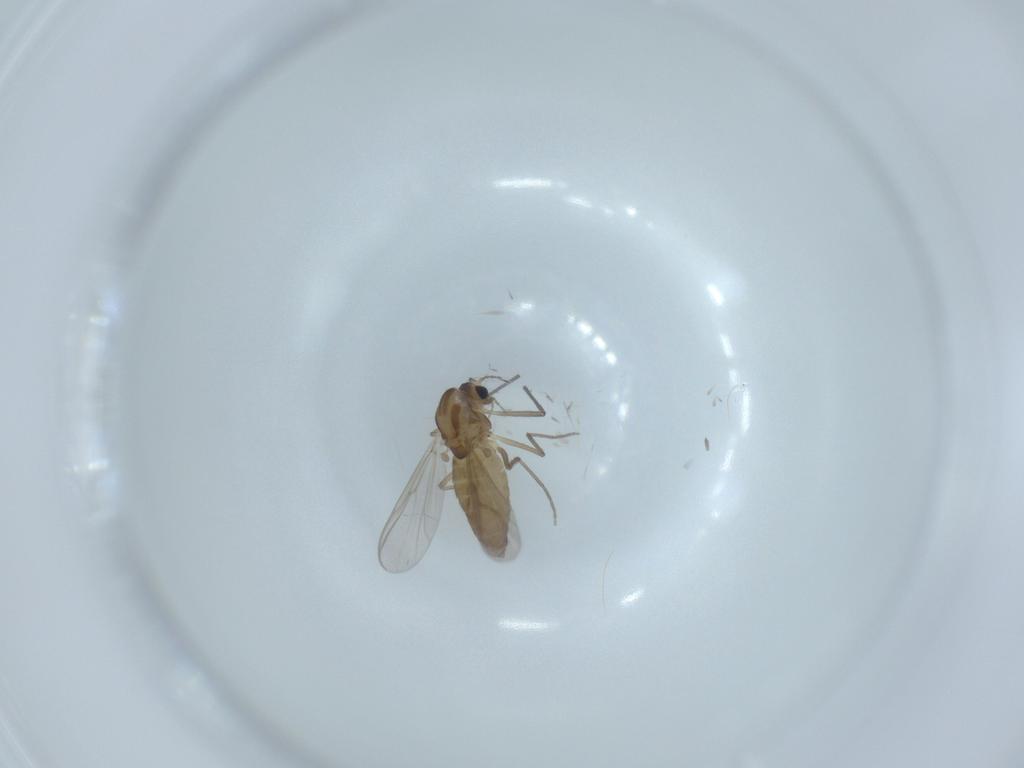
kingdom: Animalia
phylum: Arthropoda
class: Insecta
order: Diptera
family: Chironomidae
